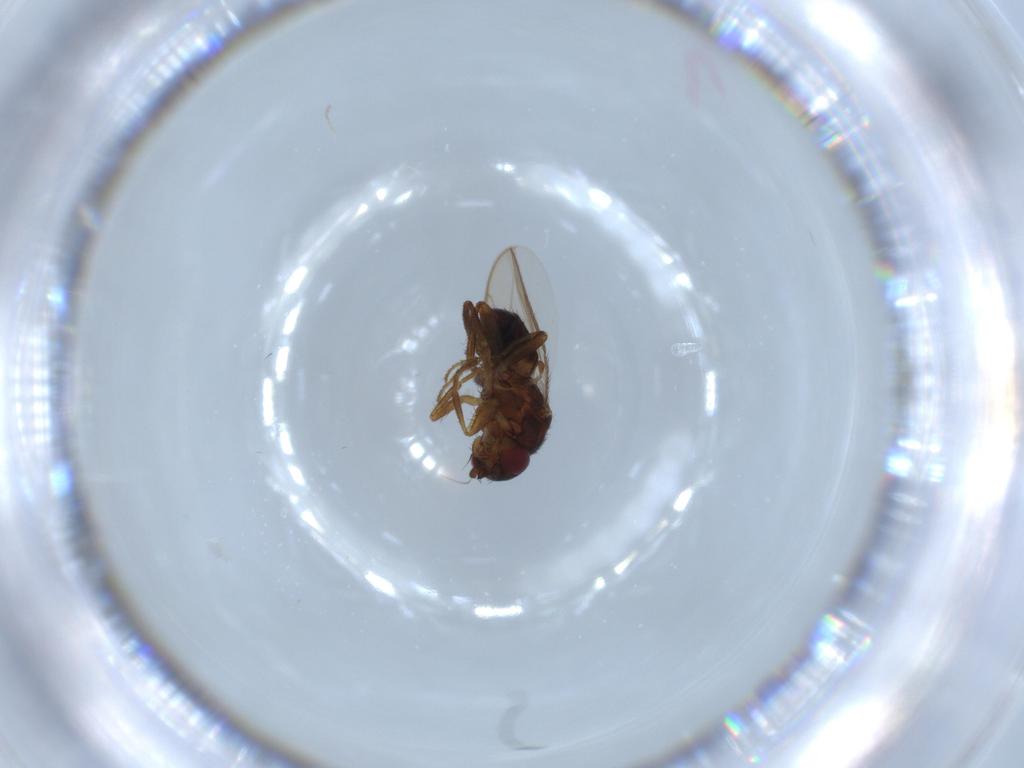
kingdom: Animalia
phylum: Arthropoda
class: Insecta
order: Diptera
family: Sphaeroceridae
